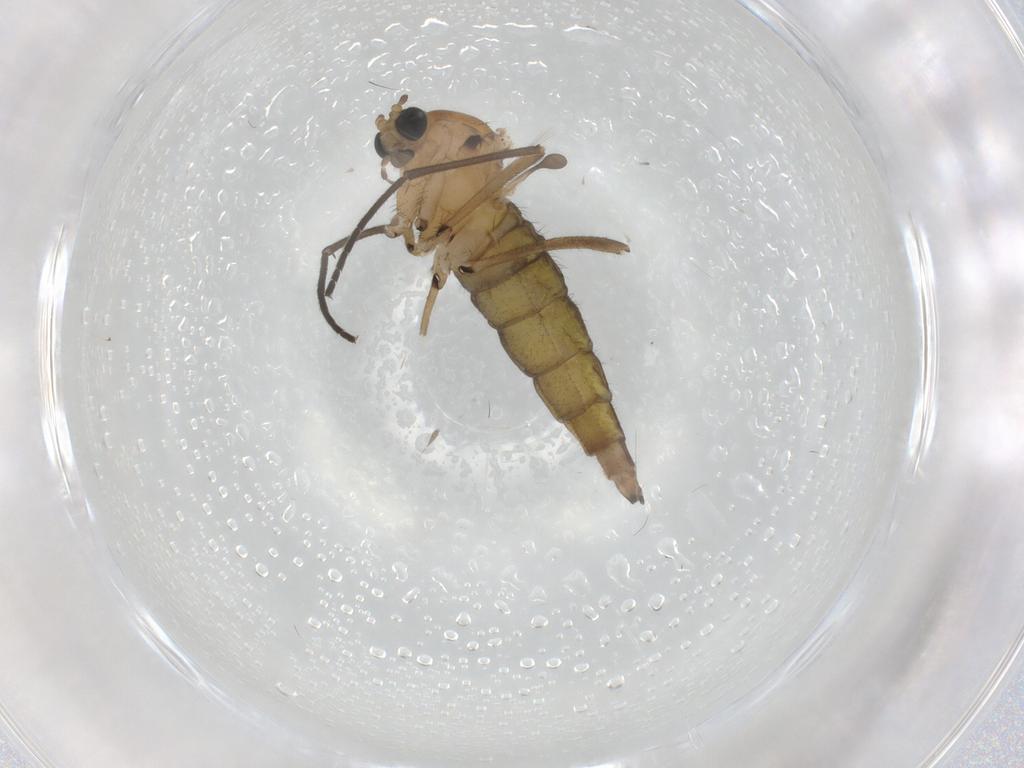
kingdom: Animalia
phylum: Arthropoda
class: Insecta
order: Diptera
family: Sciaridae
